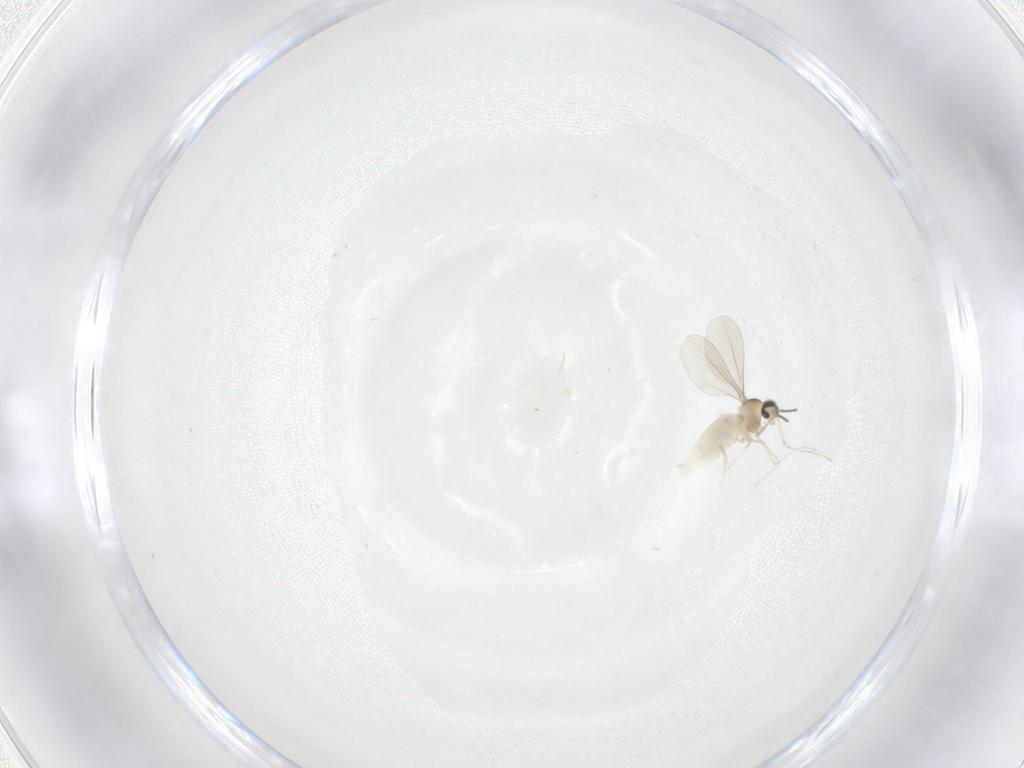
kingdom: Animalia
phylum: Arthropoda
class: Insecta
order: Diptera
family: Cecidomyiidae
